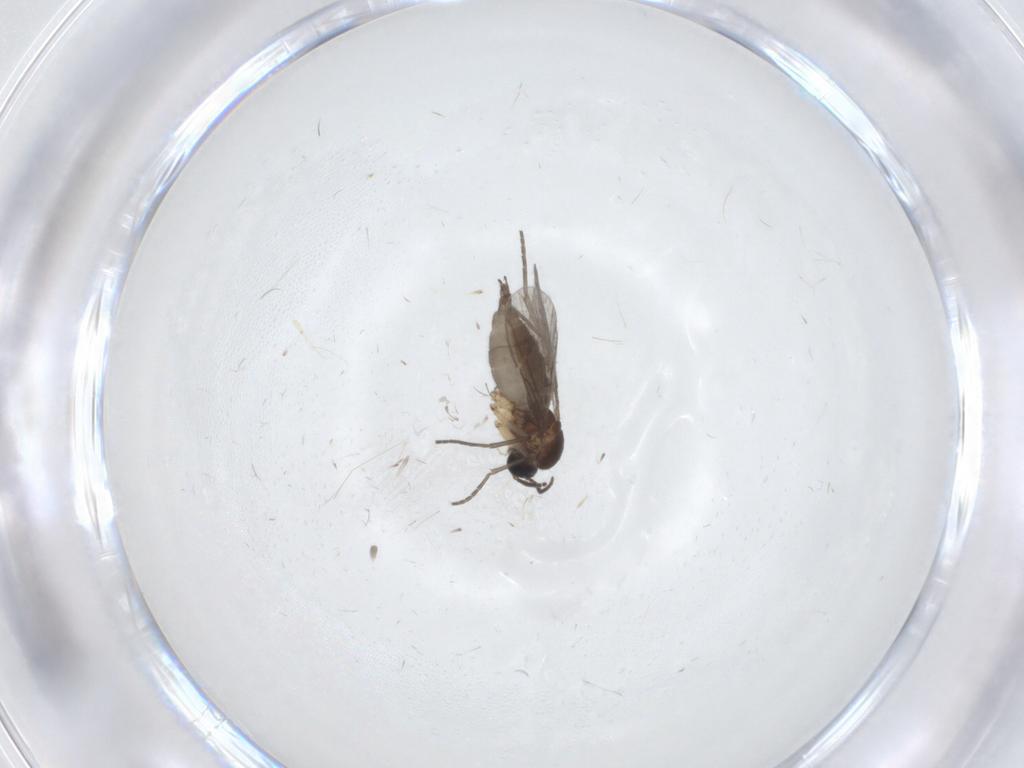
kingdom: Animalia
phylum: Arthropoda
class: Insecta
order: Diptera
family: Sciaridae
